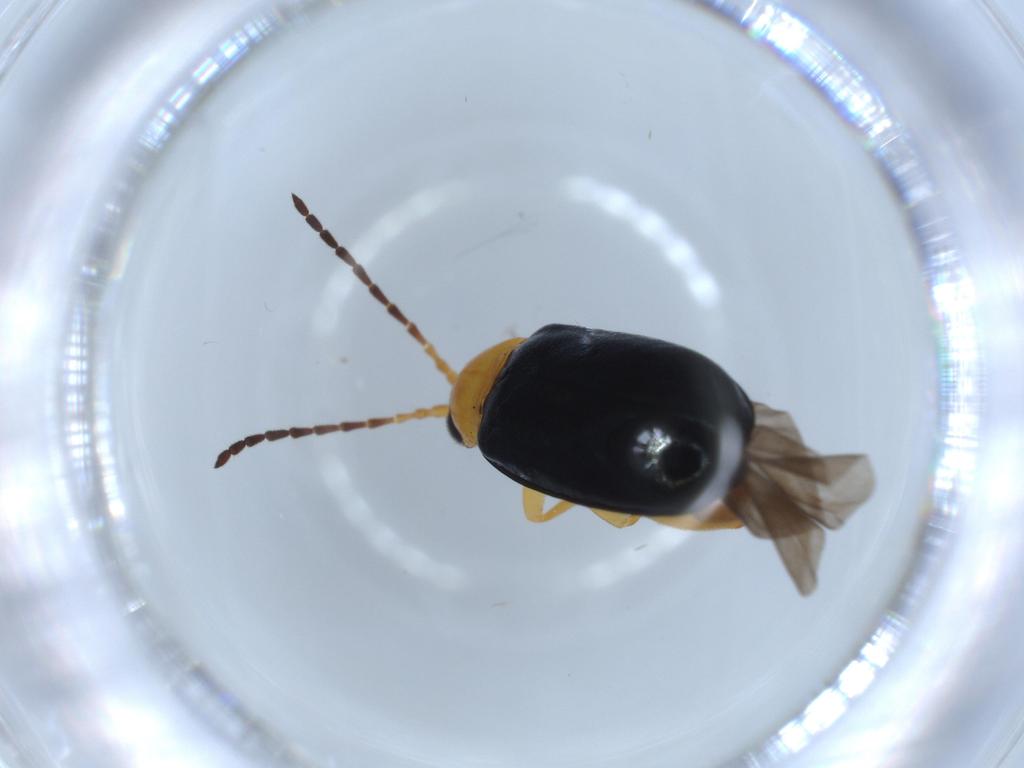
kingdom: Animalia
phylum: Arthropoda
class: Insecta
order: Coleoptera
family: Chrysomelidae
